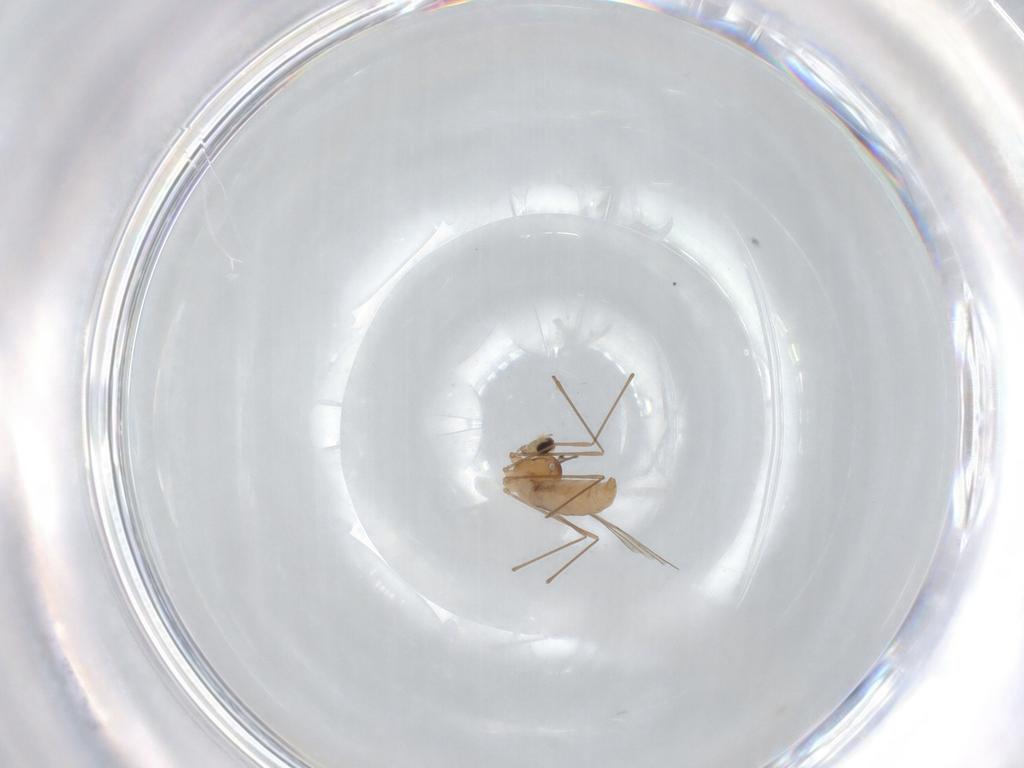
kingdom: Animalia
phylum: Arthropoda
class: Insecta
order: Diptera
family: Cecidomyiidae
